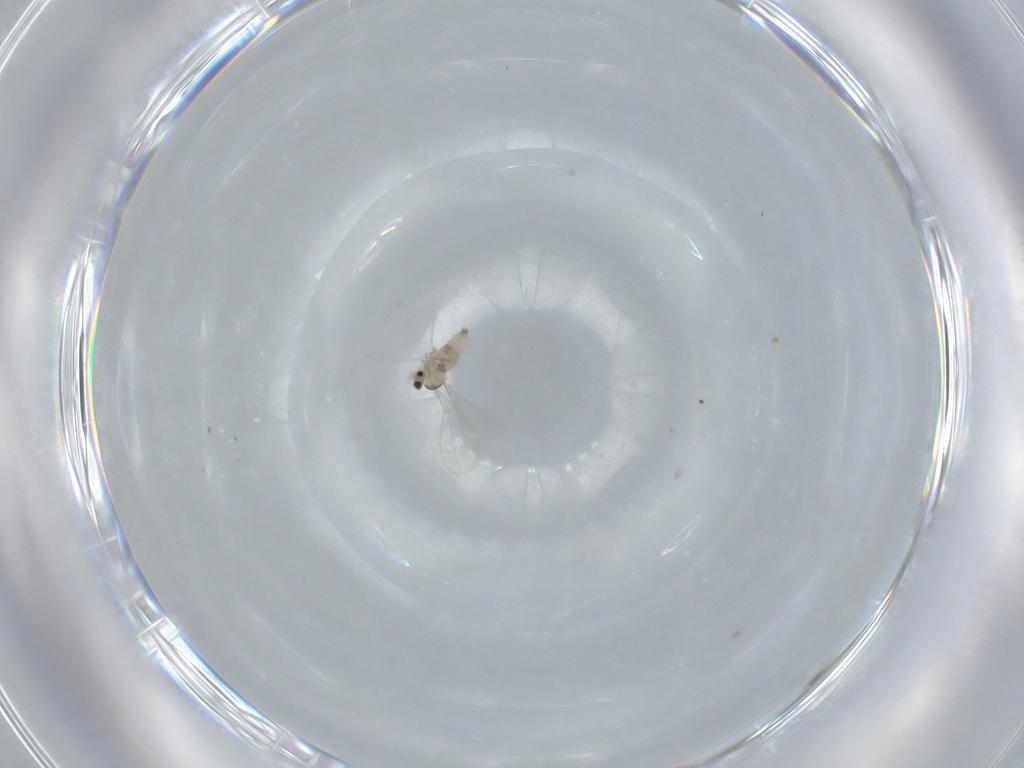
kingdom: Animalia
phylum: Arthropoda
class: Insecta
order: Diptera
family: Cecidomyiidae
